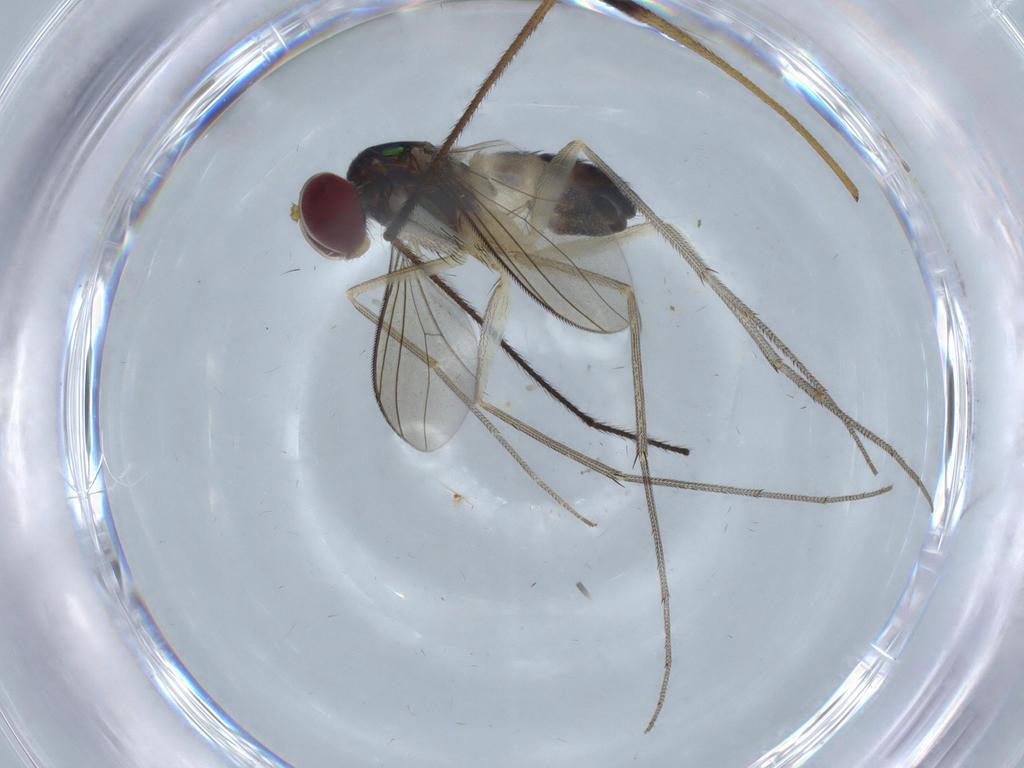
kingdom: Animalia
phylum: Arthropoda
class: Insecta
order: Diptera
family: Dolichopodidae
